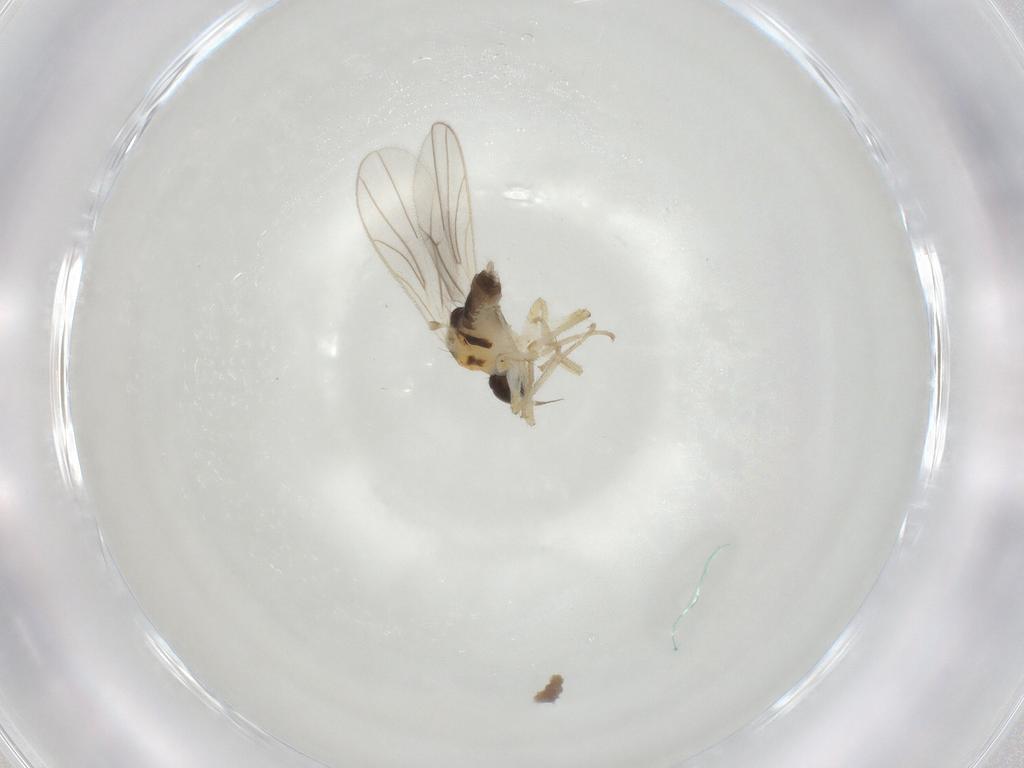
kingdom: Animalia
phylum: Arthropoda
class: Insecta
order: Diptera
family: Hybotidae
